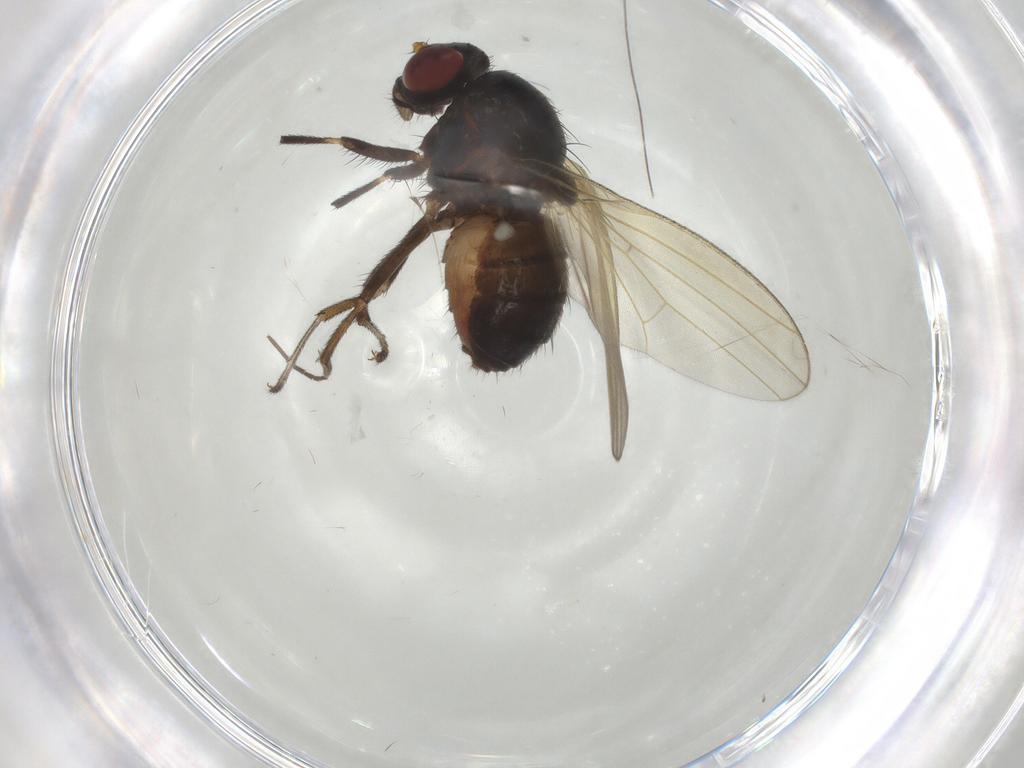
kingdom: Animalia
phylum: Arthropoda
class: Insecta
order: Diptera
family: Sciaridae
